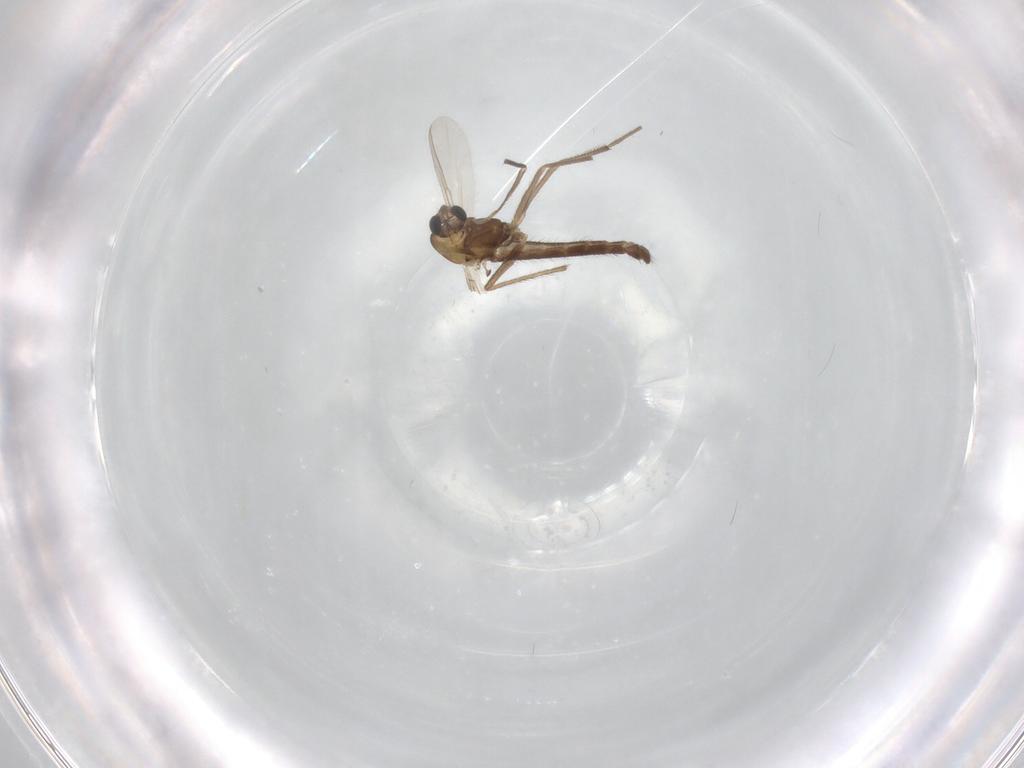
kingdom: Animalia
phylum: Arthropoda
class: Insecta
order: Diptera
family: Chironomidae
